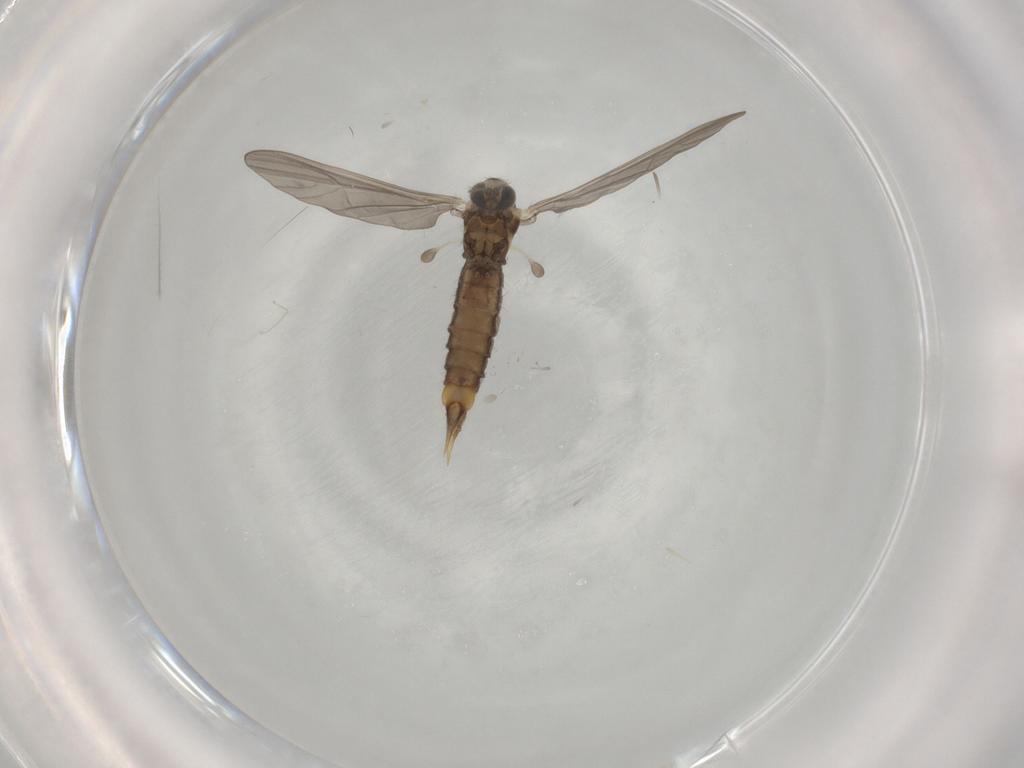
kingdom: Animalia
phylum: Arthropoda
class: Insecta
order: Diptera
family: Limoniidae
